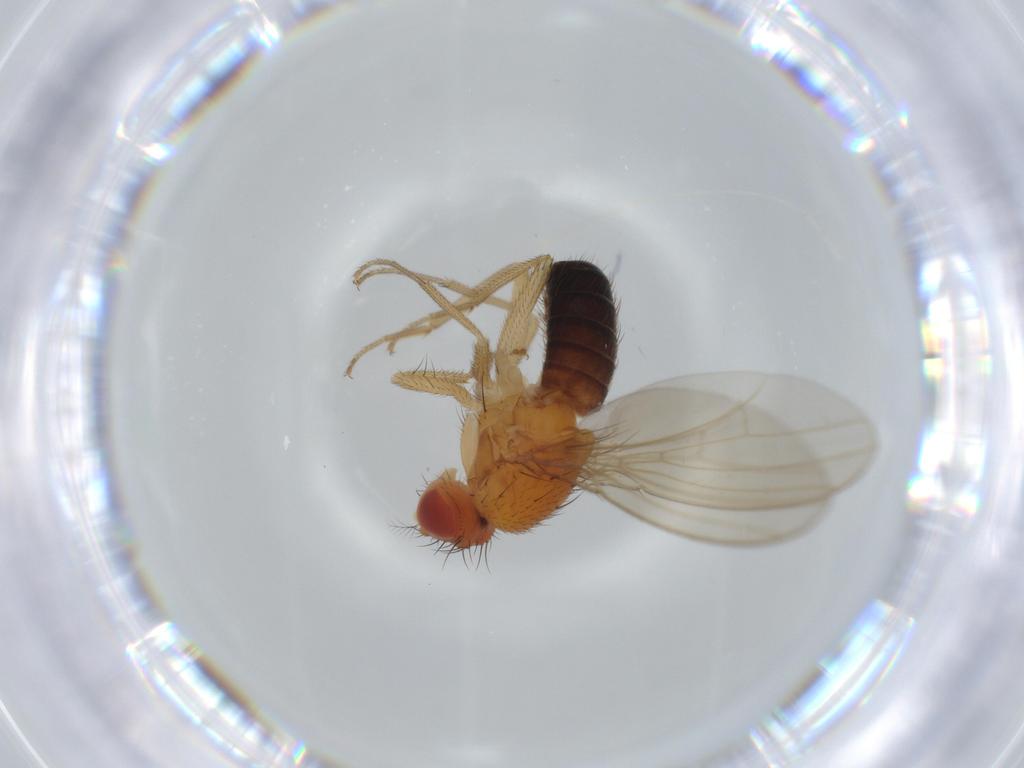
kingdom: Animalia
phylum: Arthropoda
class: Insecta
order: Diptera
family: Drosophilidae
